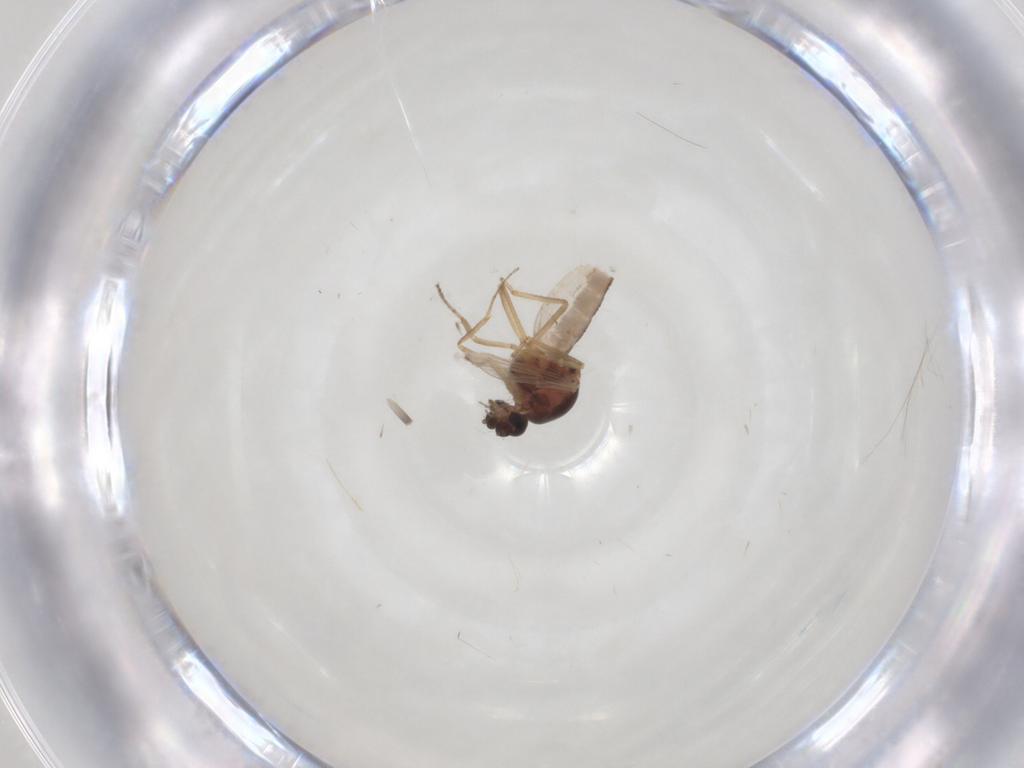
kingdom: Animalia
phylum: Arthropoda
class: Insecta
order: Diptera
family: Ceratopogonidae
